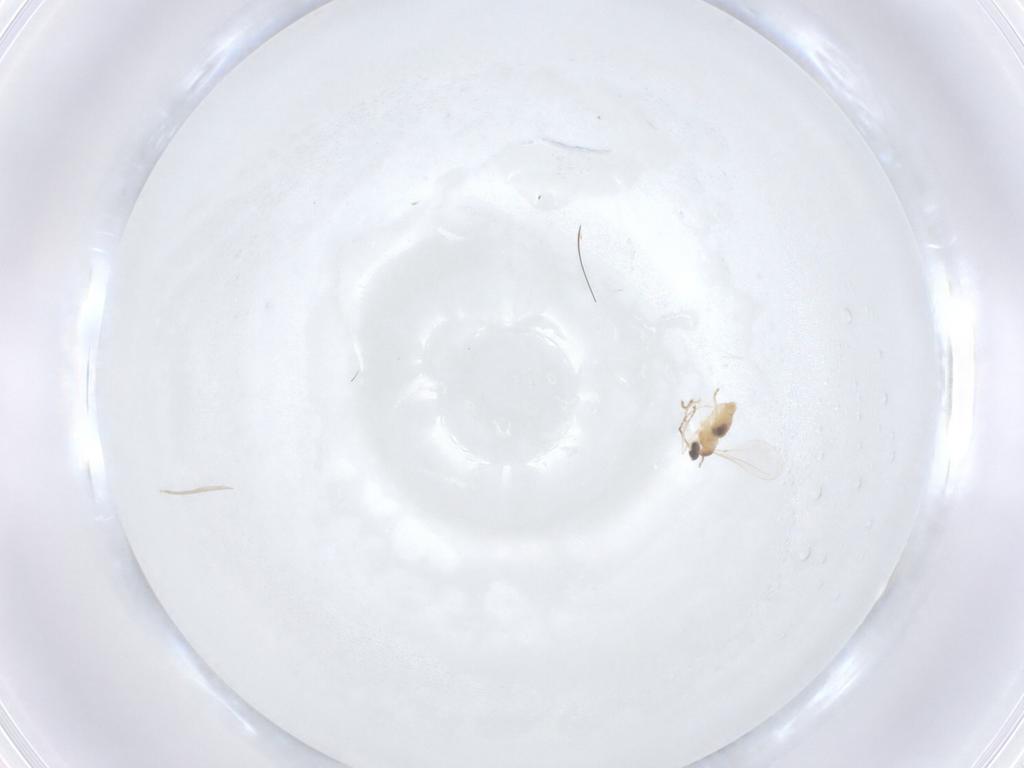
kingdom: Animalia
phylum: Arthropoda
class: Insecta
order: Diptera
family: Cecidomyiidae
